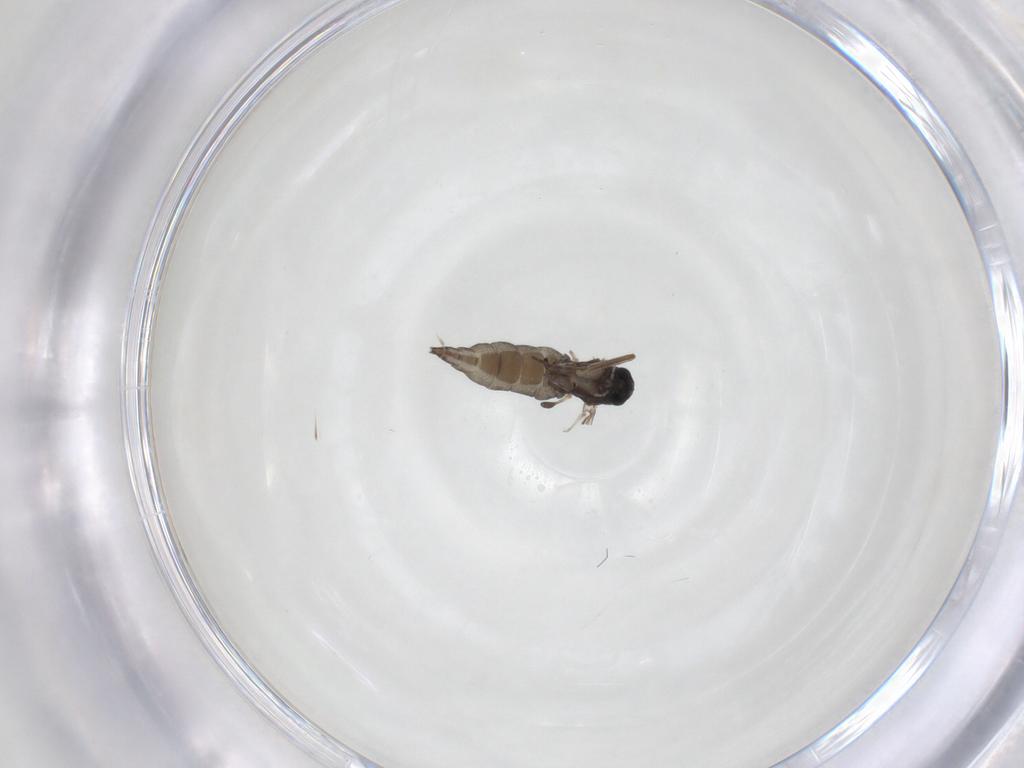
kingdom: Animalia
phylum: Arthropoda
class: Insecta
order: Diptera
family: Sciaridae
